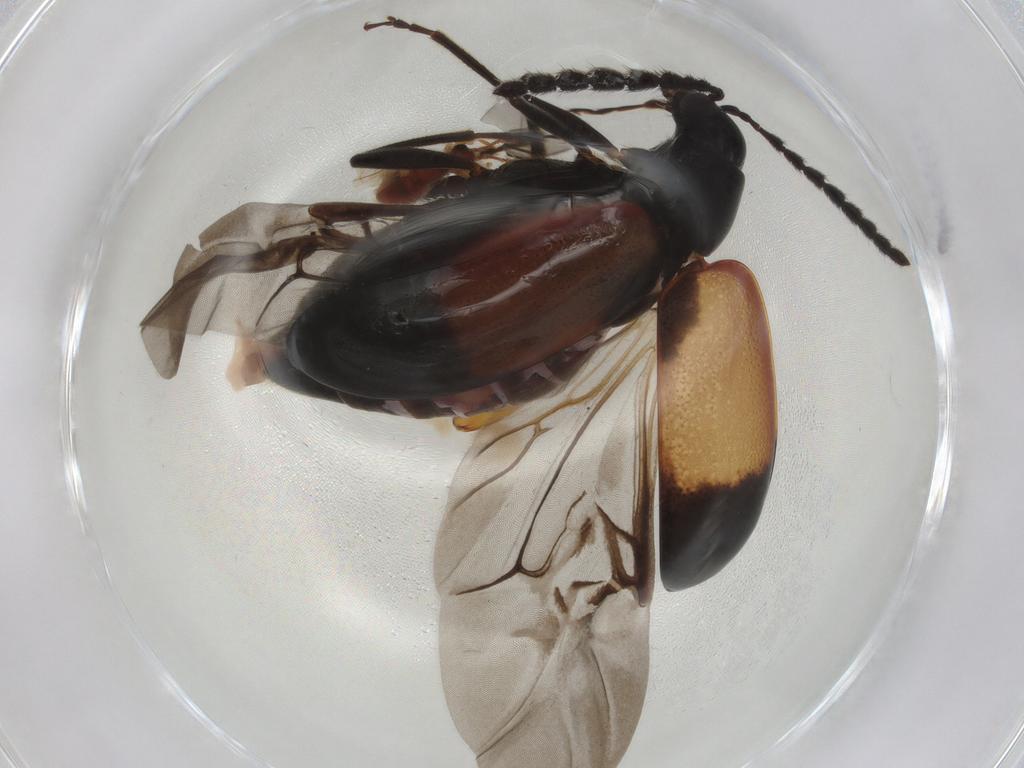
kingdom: Animalia
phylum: Arthropoda
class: Insecta
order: Coleoptera
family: Chrysomelidae
